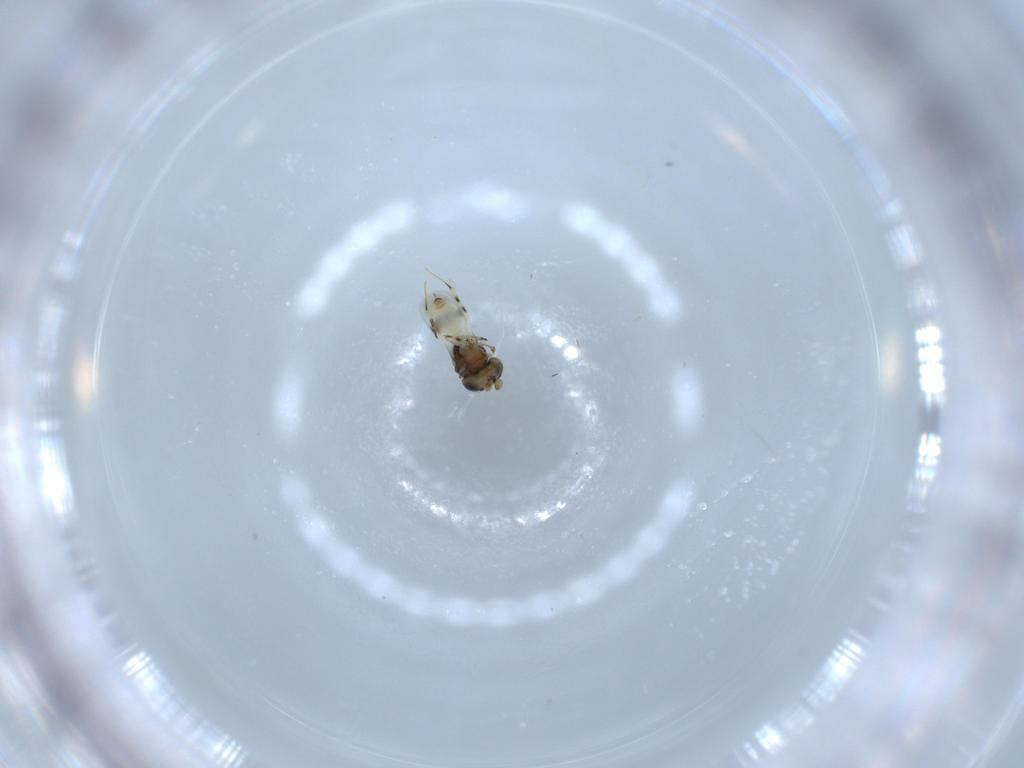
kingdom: Animalia
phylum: Arthropoda
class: Insecta
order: Hymenoptera
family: Scelionidae
